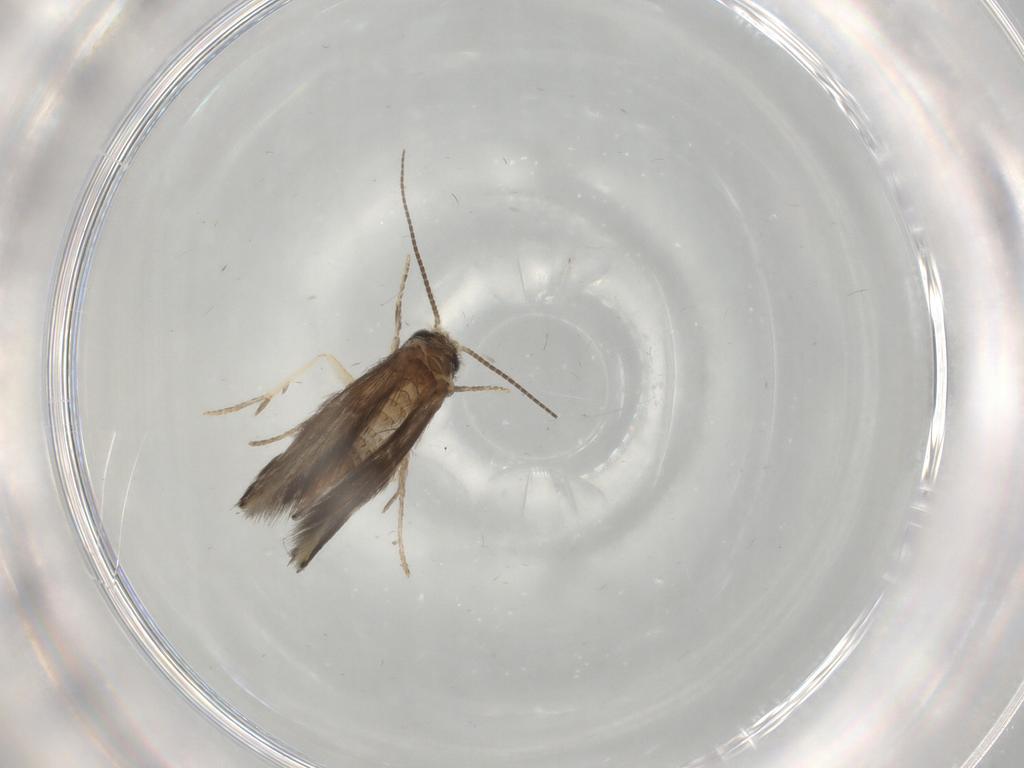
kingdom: Animalia
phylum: Arthropoda
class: Insecta
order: Trichoptera
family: Hydroptilidae
